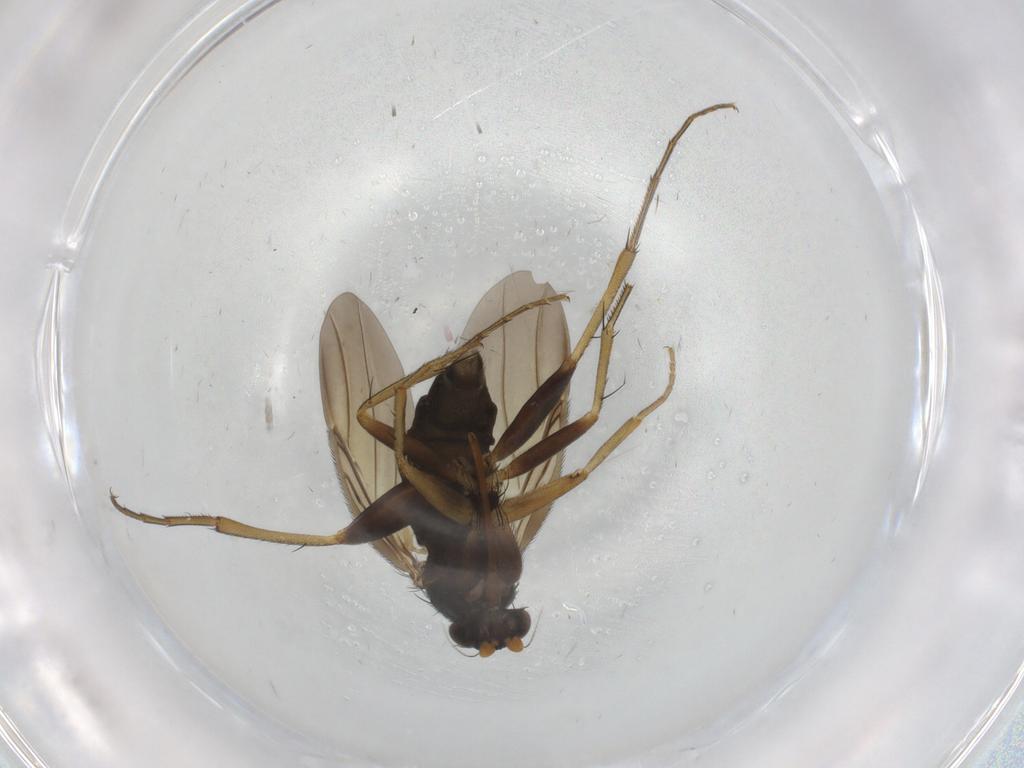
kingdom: Animalia
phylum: Arthropoda
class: Insecta
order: Diptera
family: Phoridae
